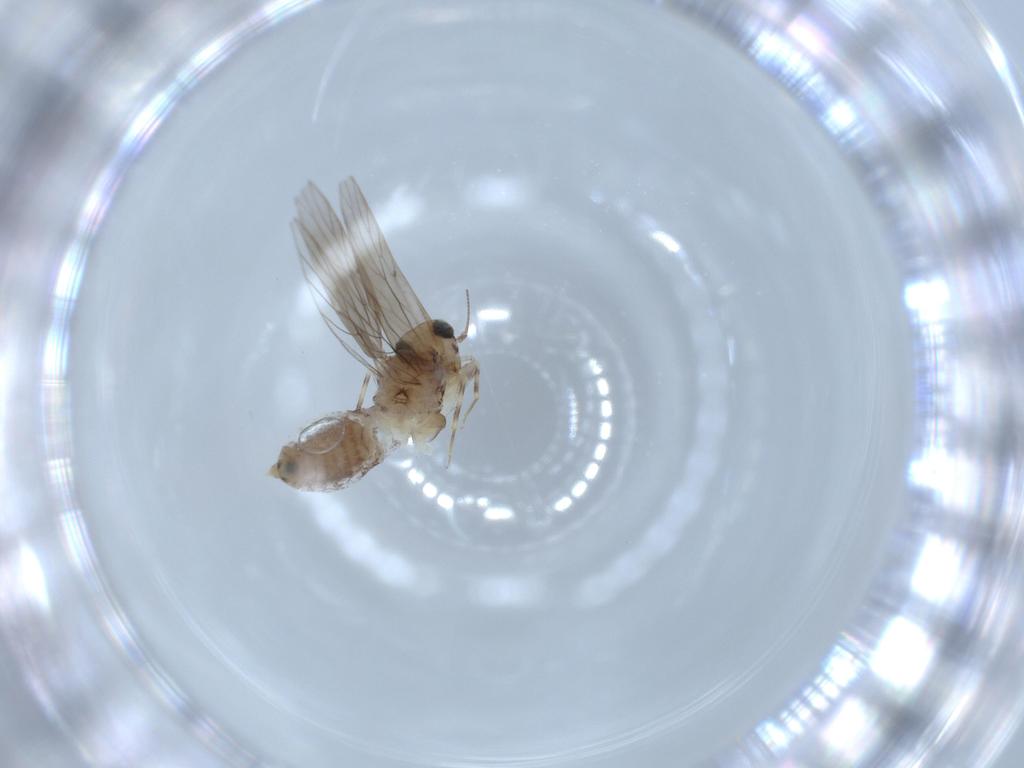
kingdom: Animalia
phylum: Arthropoda
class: Insecta
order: Psocodea
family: Lepidopsocidae
